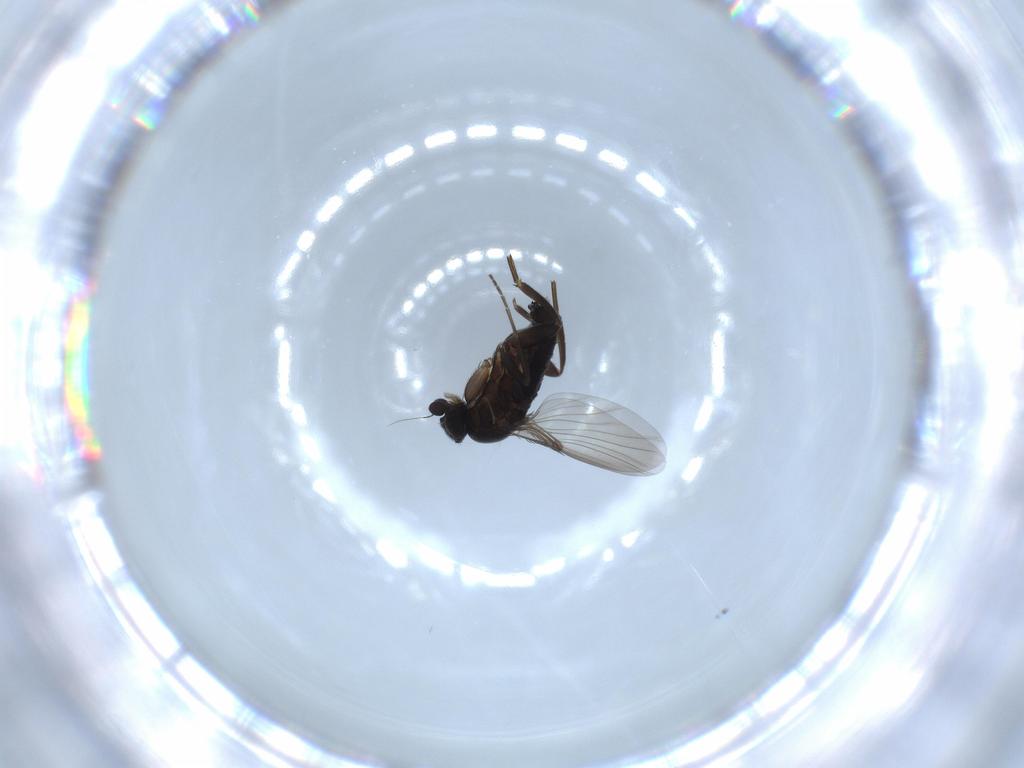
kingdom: Animalia
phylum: Arthropoda
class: Insecta
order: Diptera
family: Phoridae
